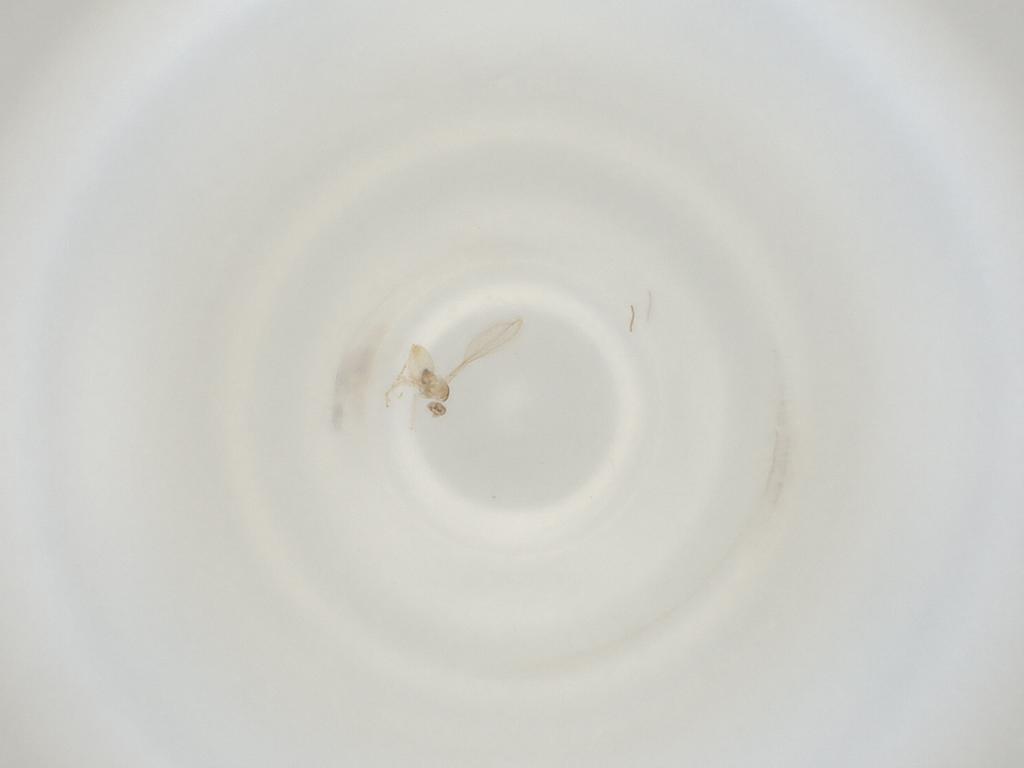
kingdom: Animalia
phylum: Arthropoda
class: Insecta
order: Diptera
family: Cecidomyiidae
